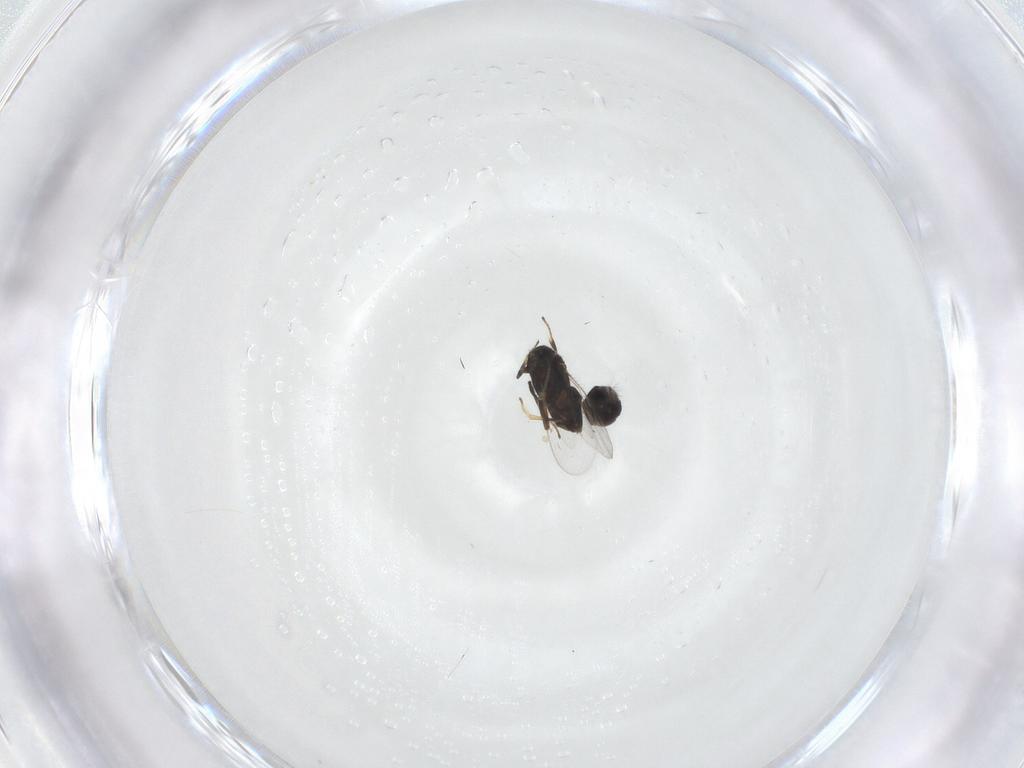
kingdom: Animalia
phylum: Arthropoda
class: Insecta
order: Hymenoptera
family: Encyrtidae
